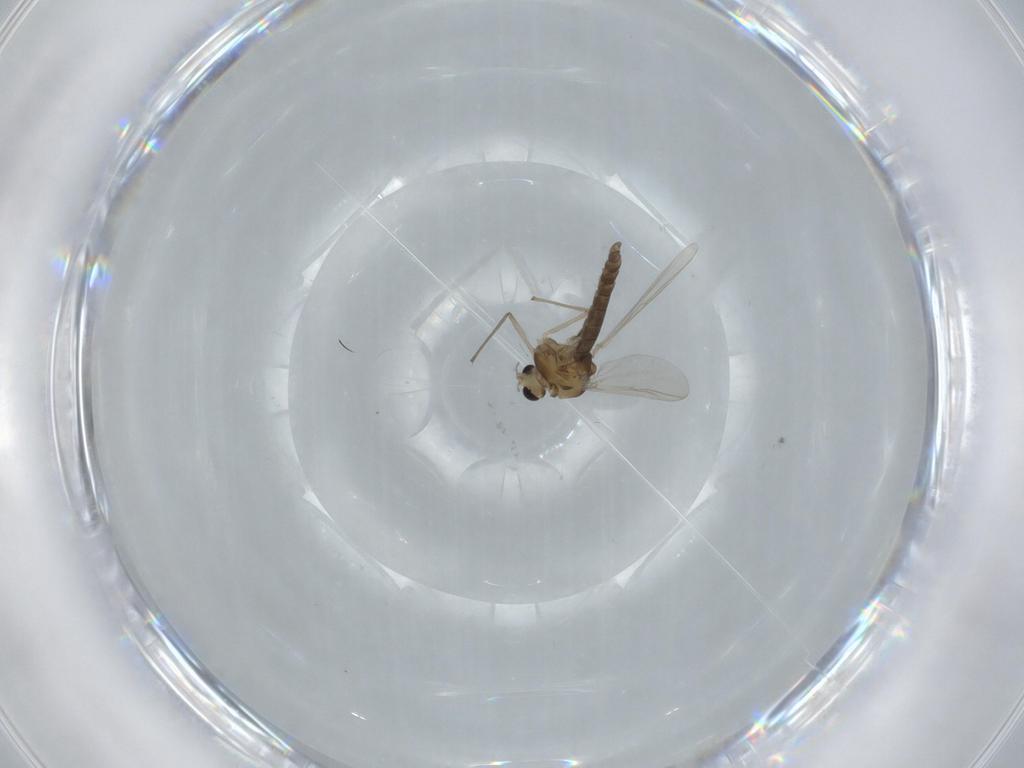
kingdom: Animalia
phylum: Arthropoda
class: Insecta
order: Diptera
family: Chironomidae
